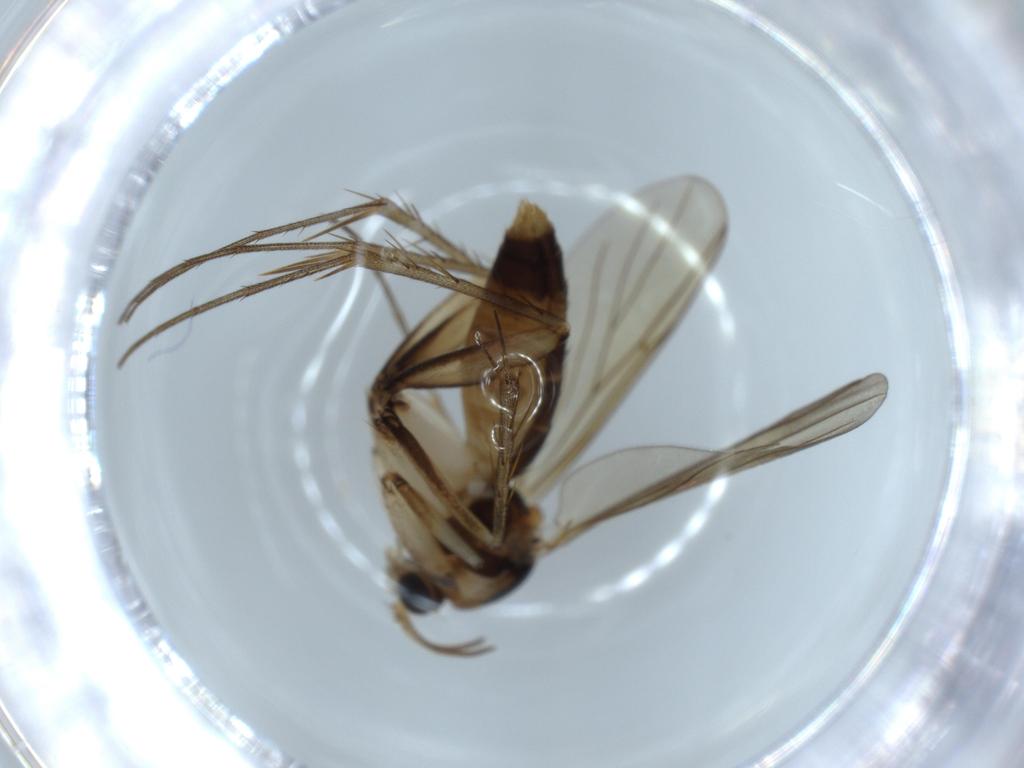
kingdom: Animalia
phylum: Arthropoda
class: Insecta
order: Diptera
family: Mycetophilidae
